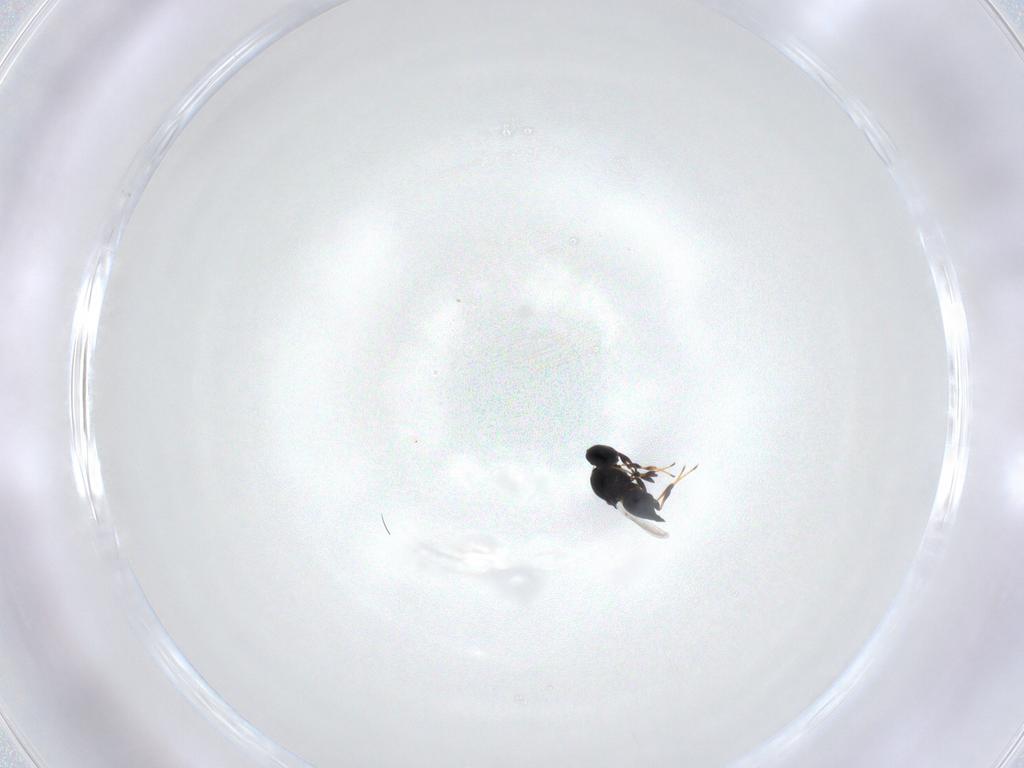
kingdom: Animalia
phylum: Arthropoda
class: Insecta
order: Hymenoptera
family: Platygastridae
